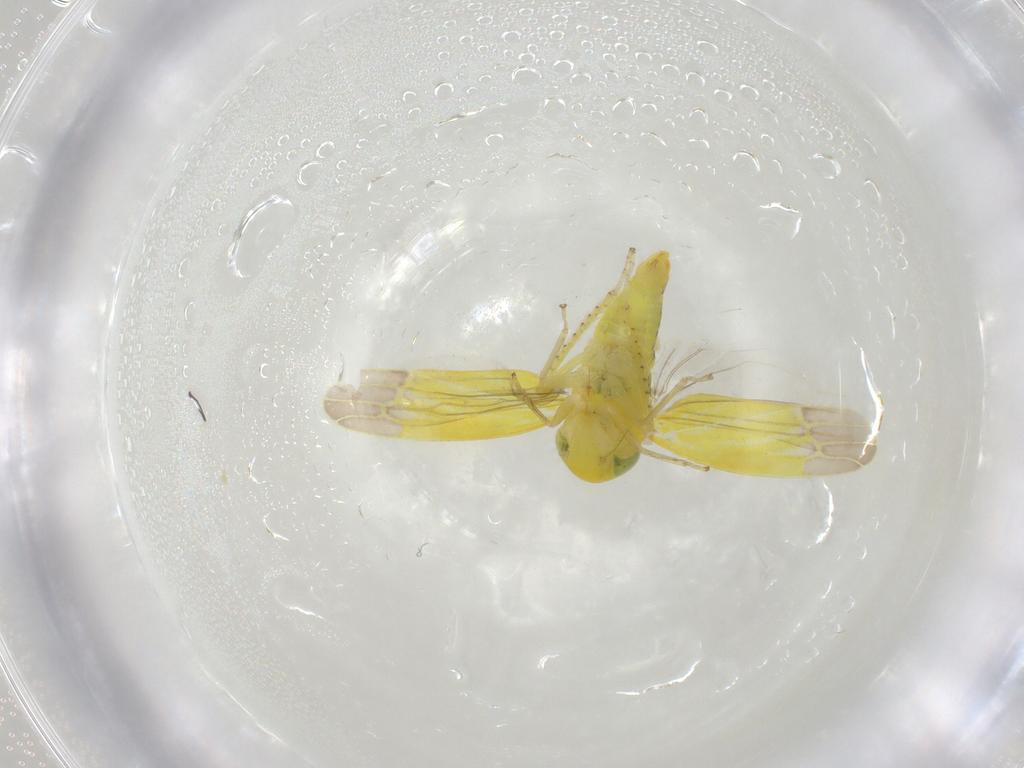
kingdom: Animalia
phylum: Arthropoda
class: Insecta
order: Hemiptera
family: Cicadellidae
